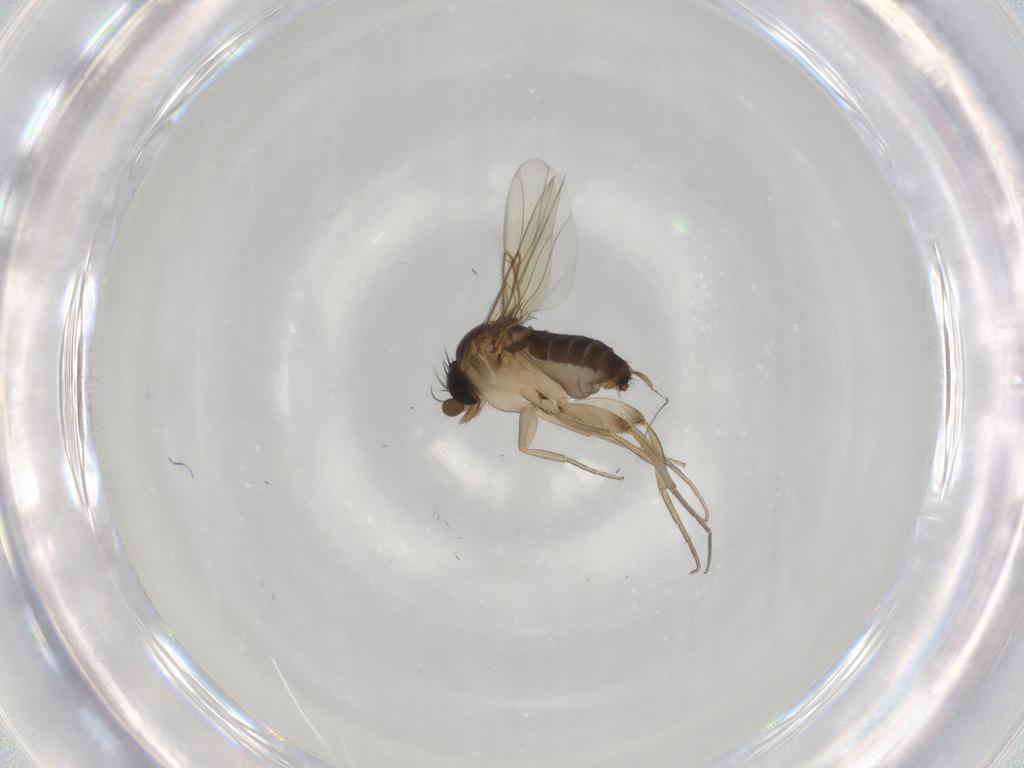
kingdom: Animalia
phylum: Arthropoda
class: Insecta
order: Diptera
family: Phoridae
